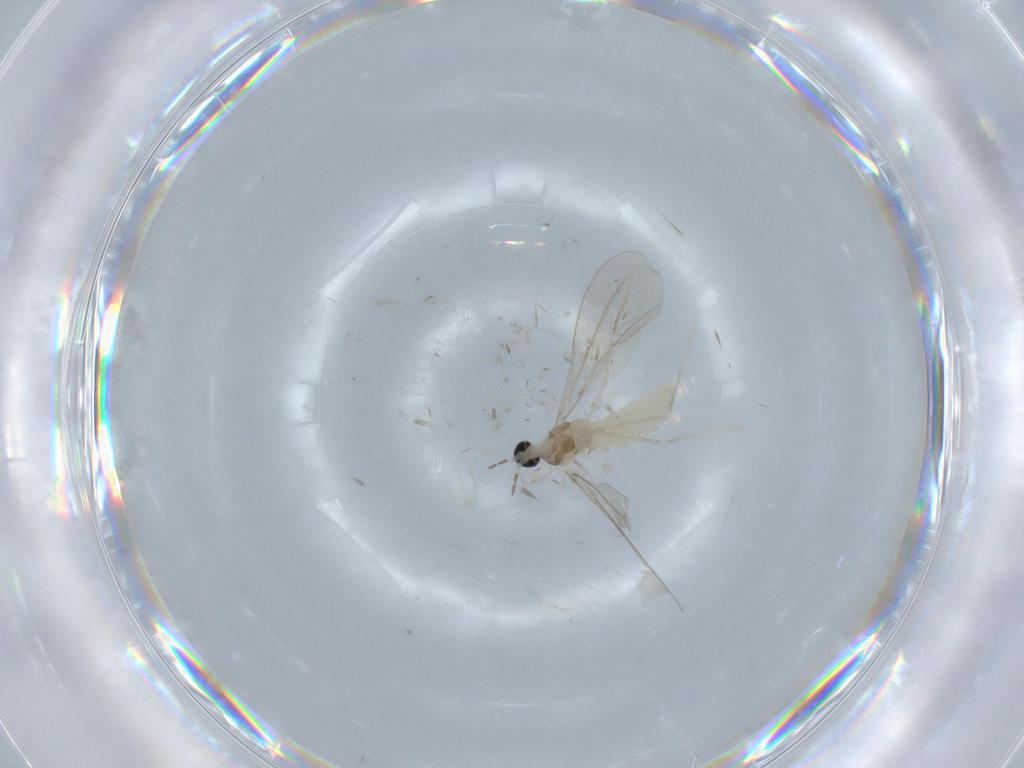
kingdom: Animalia
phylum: Arthropoda
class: Insecta
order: Diptera
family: Cecidomyiidae
